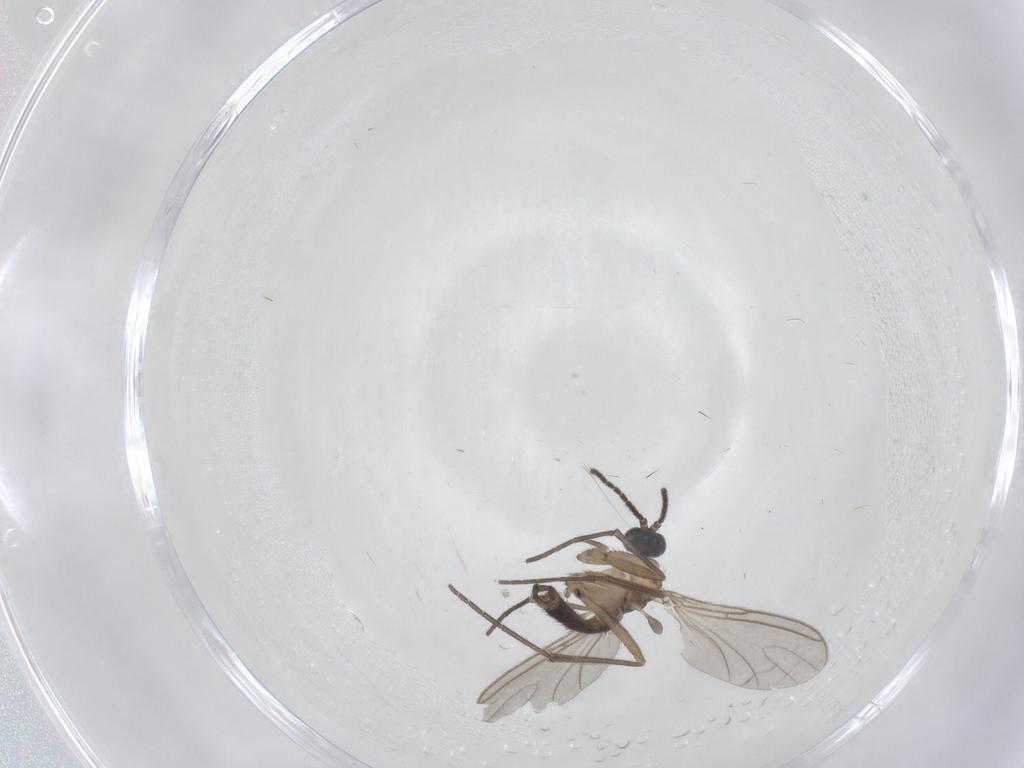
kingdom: Animalia
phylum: Arthropoda
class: Insecta
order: Diptera
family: Sciaridae
